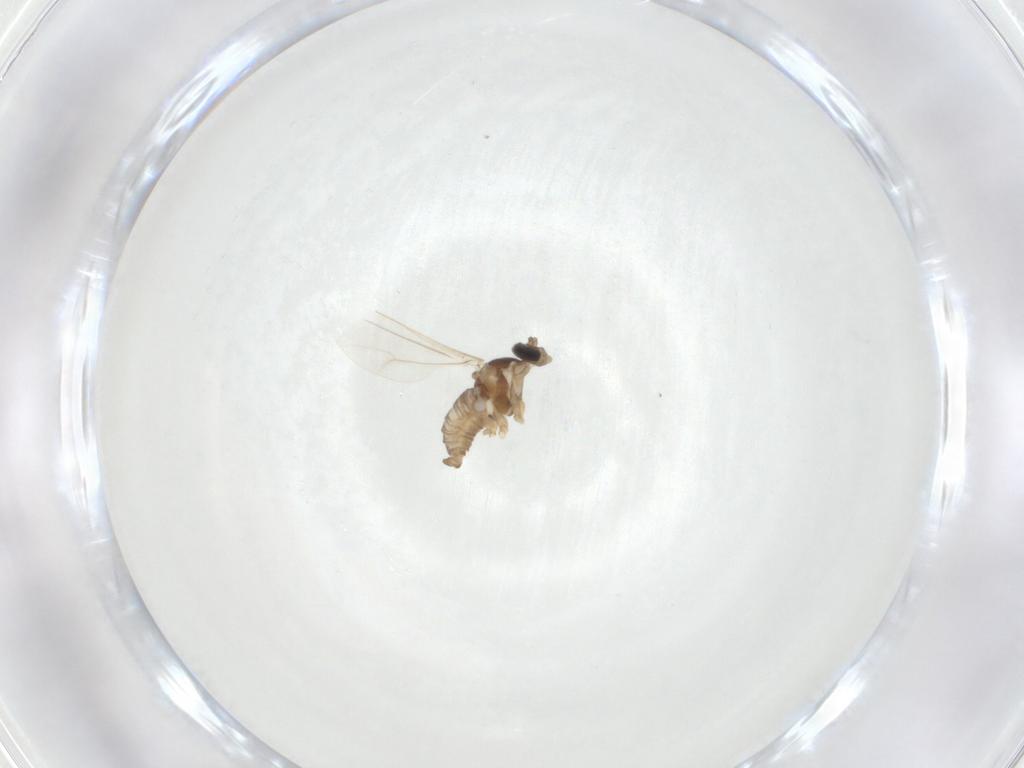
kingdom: Animalia
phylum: Arthropoda
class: Insecta
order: Diptera
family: Cecidomyiidae
